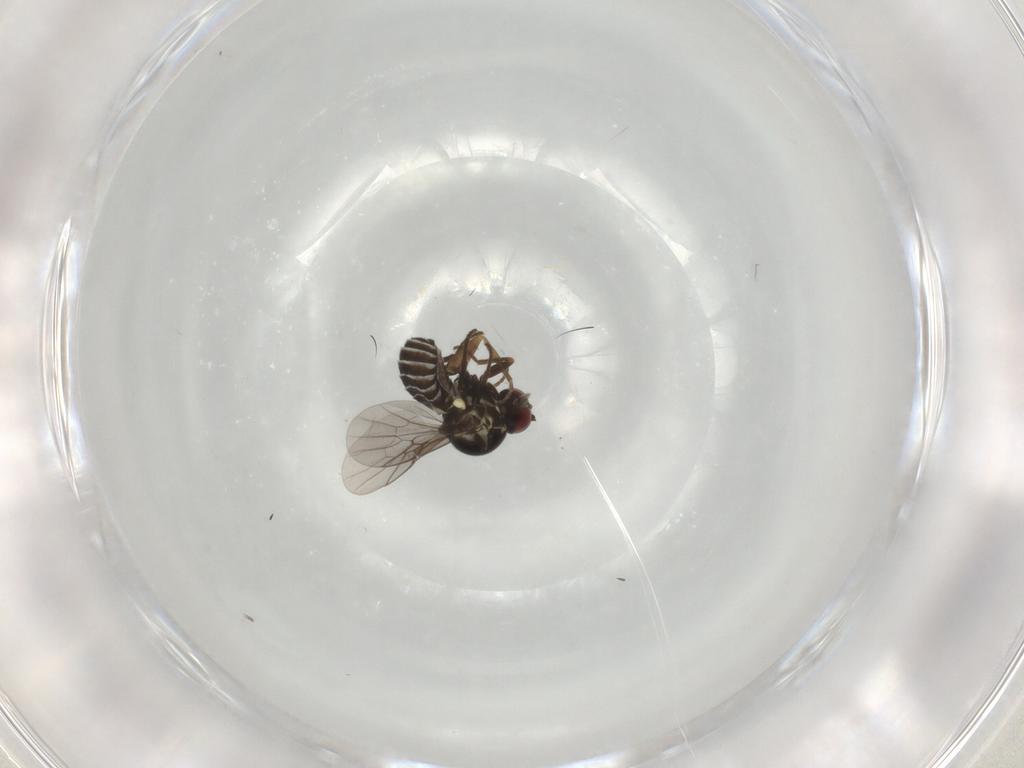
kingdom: Animalia
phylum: Arthropoda
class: Insecta
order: Diptera
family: Mythicomyiidae
